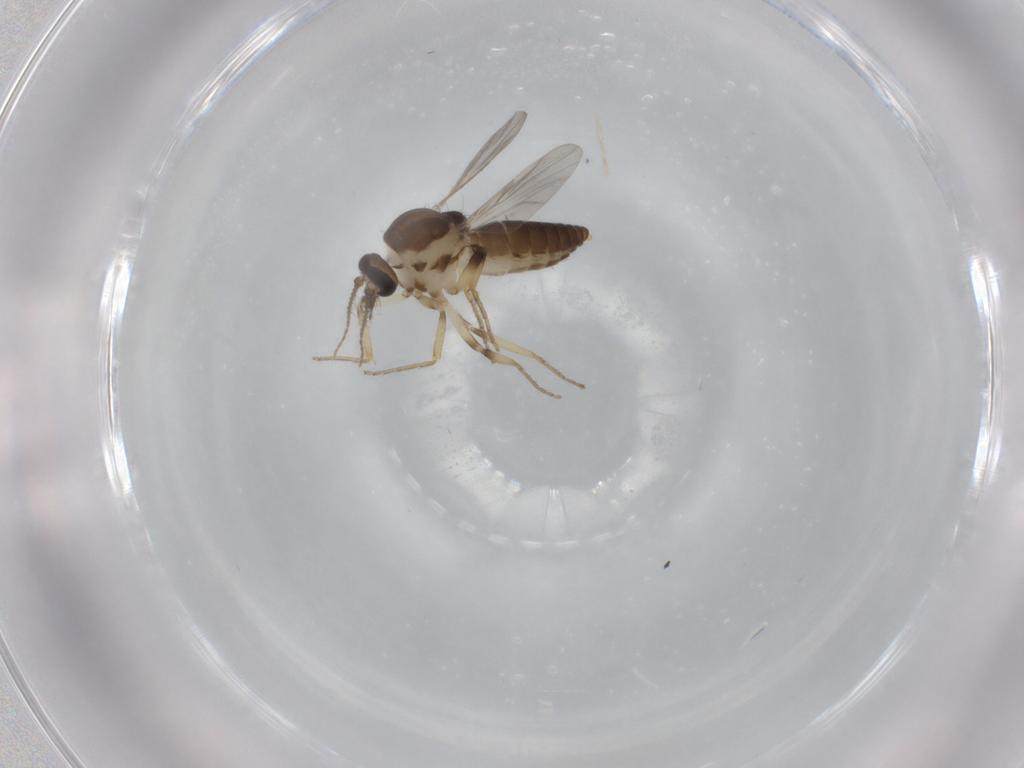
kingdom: Animalia
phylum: Arthropoda
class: Insecta
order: Diptera
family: Ceratopogonidae
